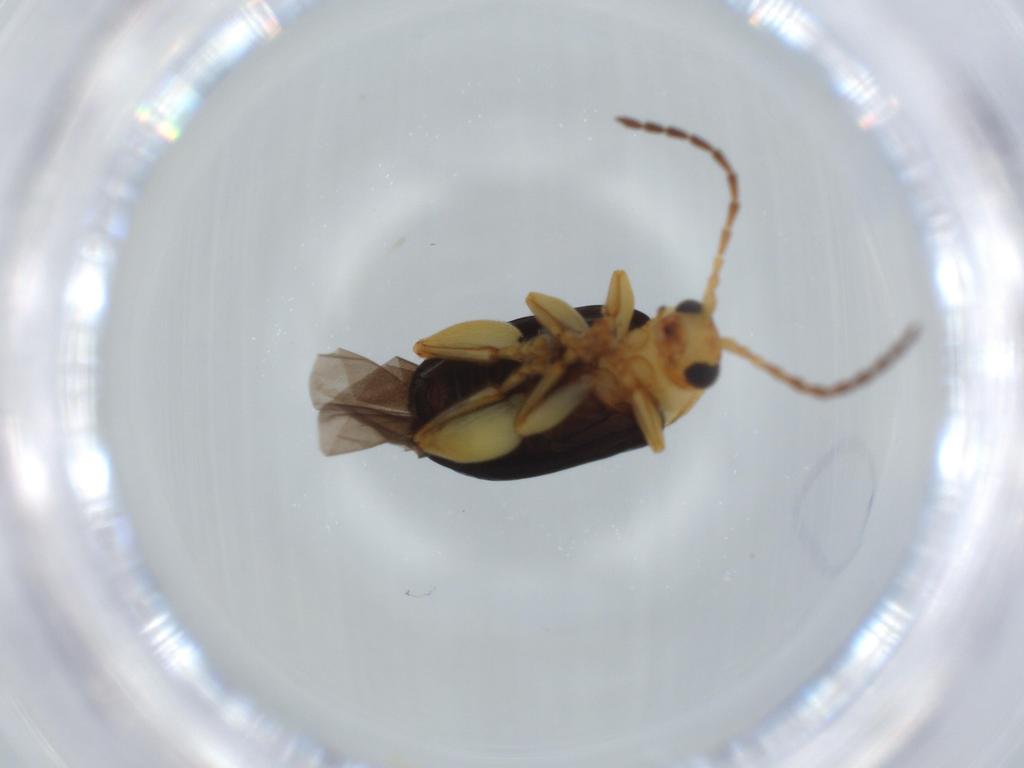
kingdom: Animalia
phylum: Arthropoda
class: Insecta
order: Coleoptera
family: Chrysomelidae
